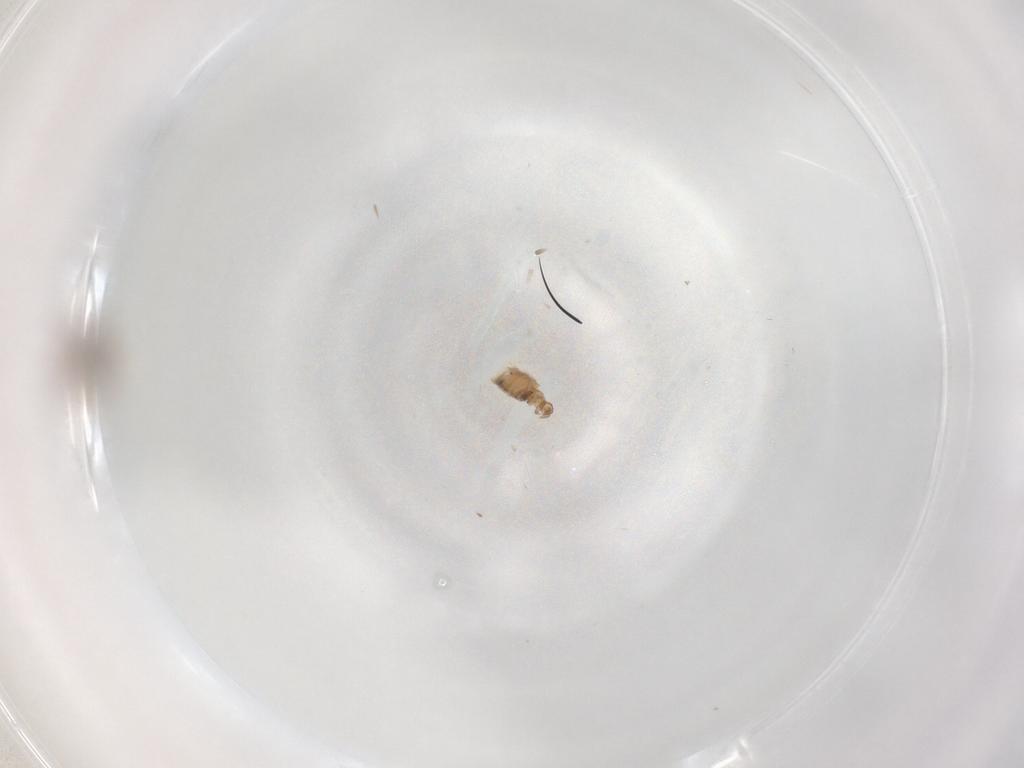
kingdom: Animalia
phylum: Arthropoda
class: Insecta
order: Diptera
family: Psychodidae
